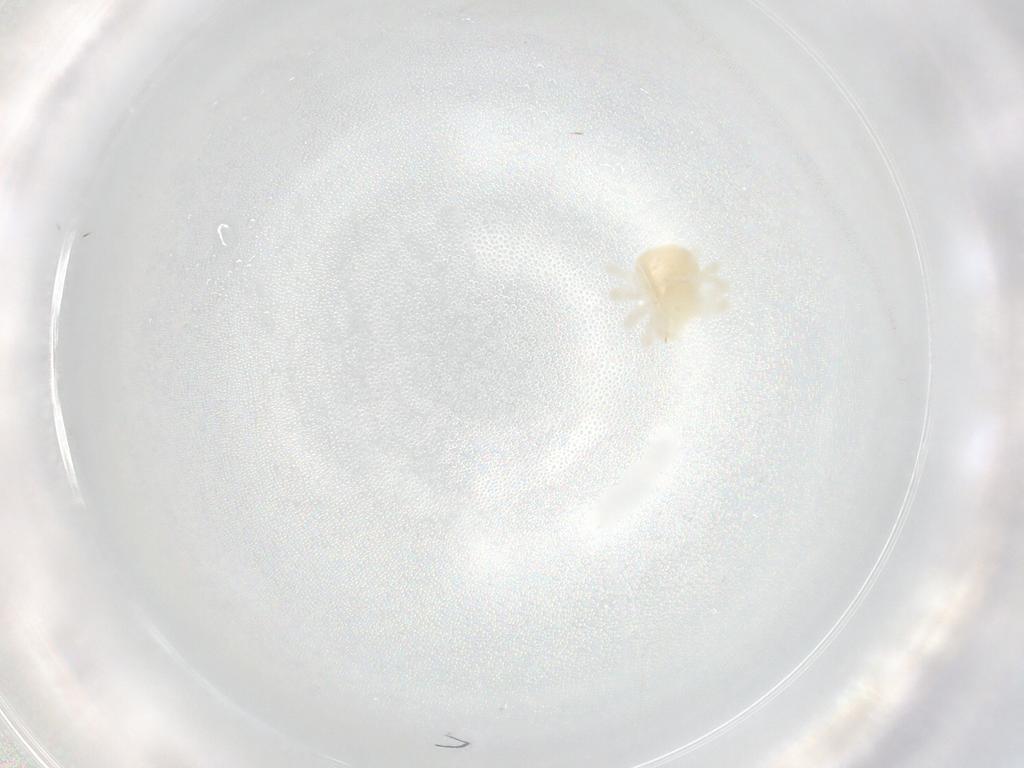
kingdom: Animalia
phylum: Arthropoda
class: Arachnida
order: Trombidiformes
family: Anystidae
